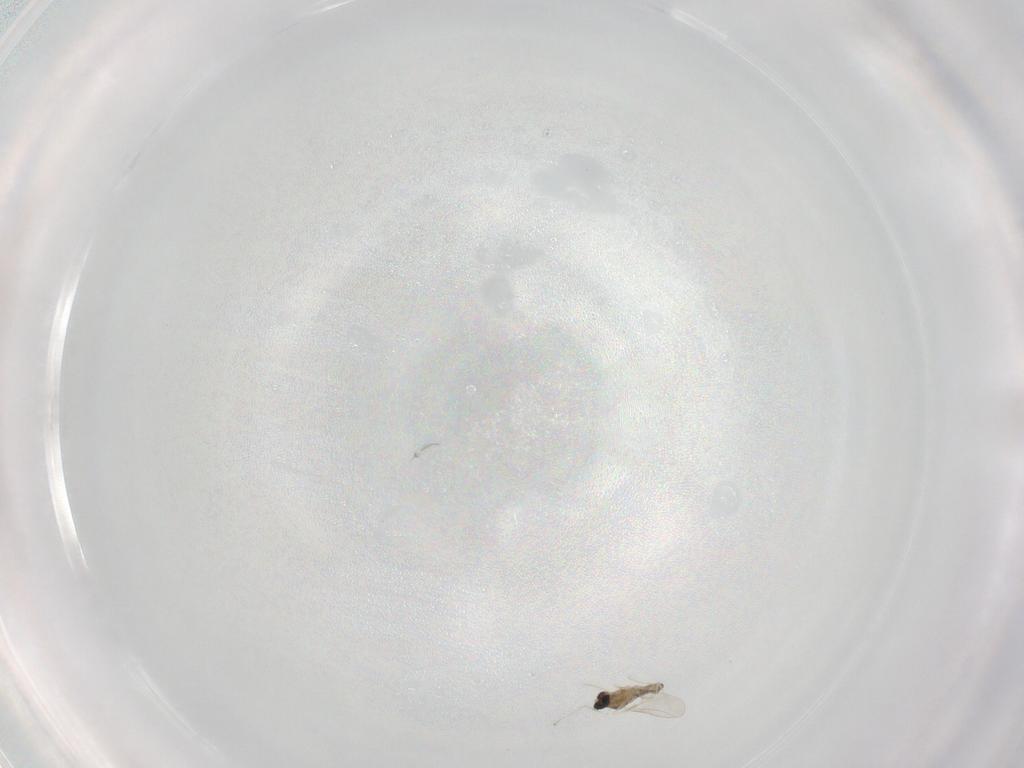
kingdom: Animalia
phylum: Arthropoda
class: Insecta
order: Diptera
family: Cecidomyiidae
